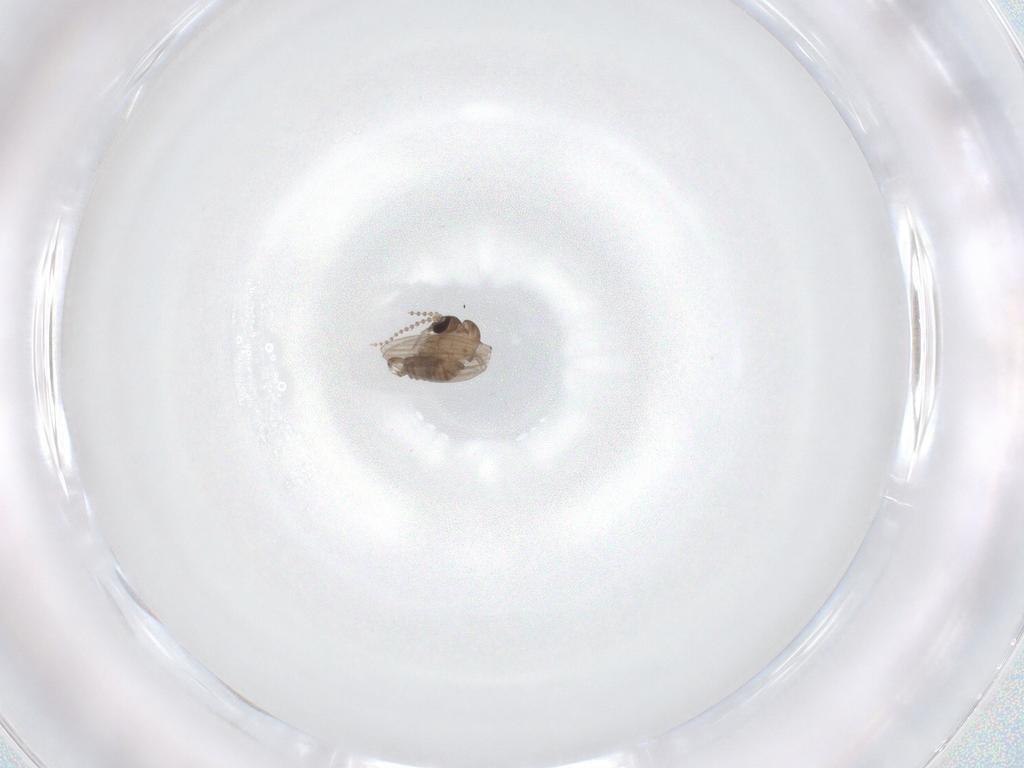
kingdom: Animalia
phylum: Arthropoda
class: Insecta
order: Diptera
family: Psychodidae
